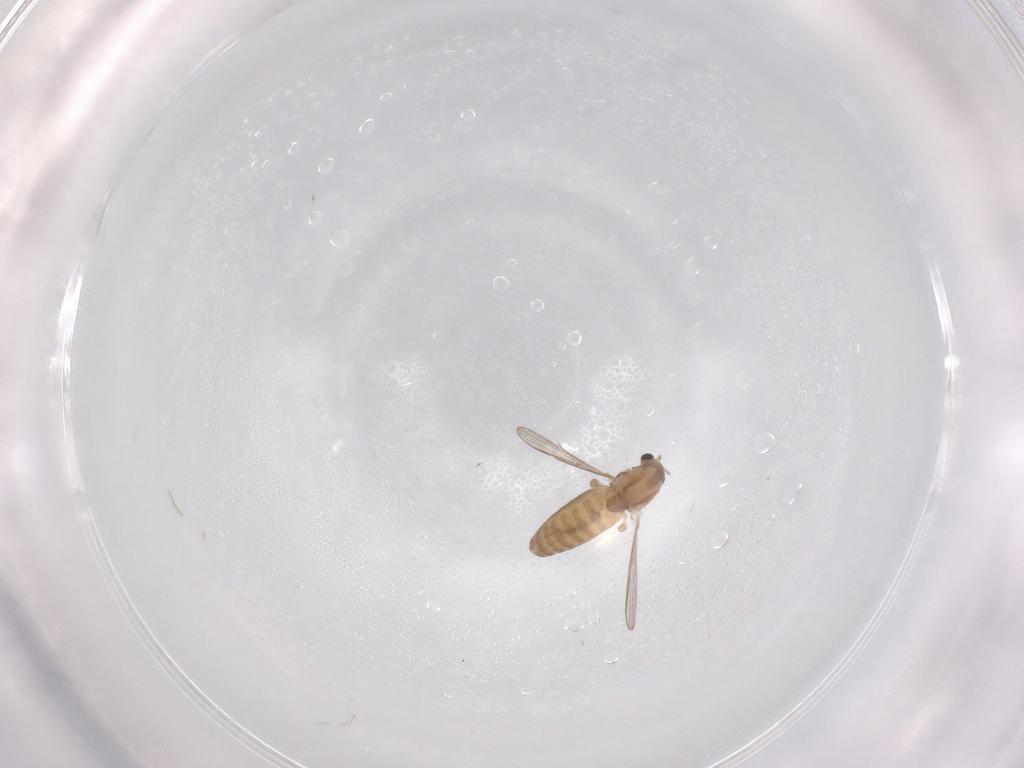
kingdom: Animalia
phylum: Arthropoda
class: Insecta
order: Diptera
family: Chironomidae
